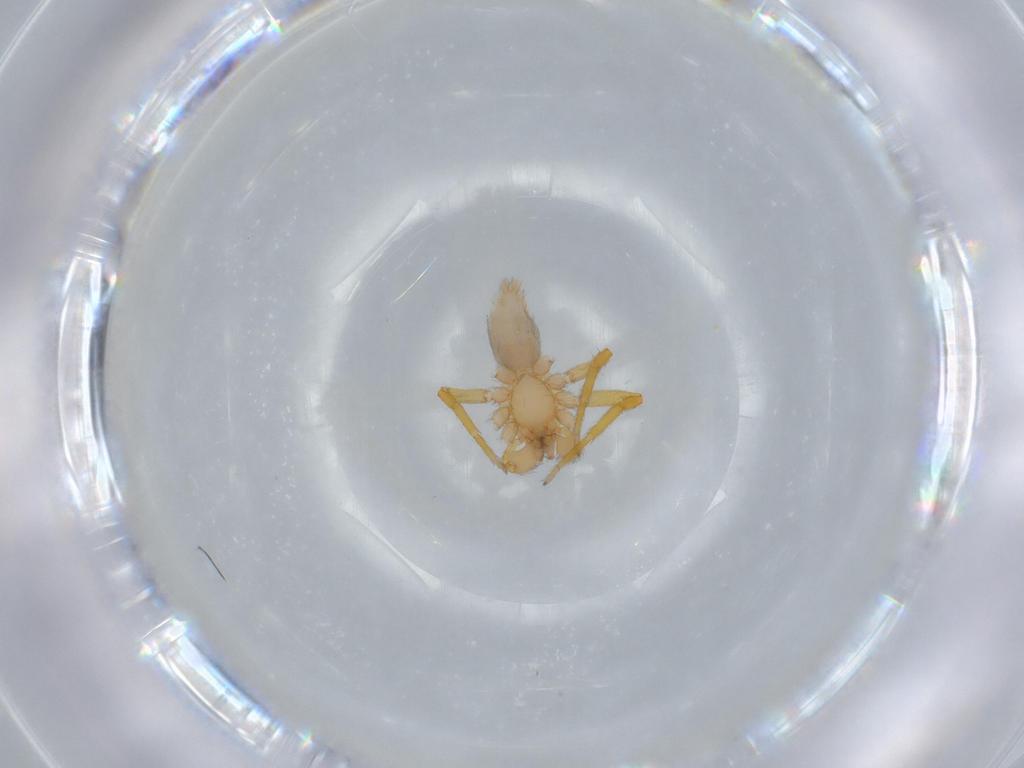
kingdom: Animalia
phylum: Arthropoda
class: Arachnida
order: Araneae
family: Oonopidae
